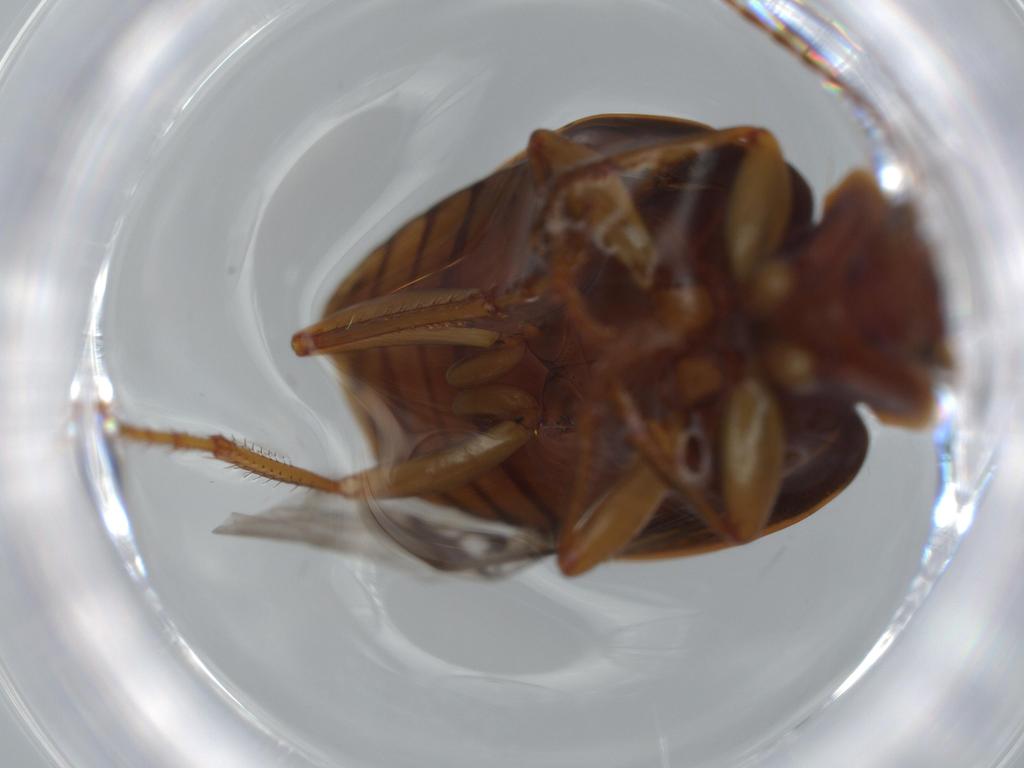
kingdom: Animalia
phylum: Arthropoda
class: Insecta
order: Coleoptera
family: Carabidae
